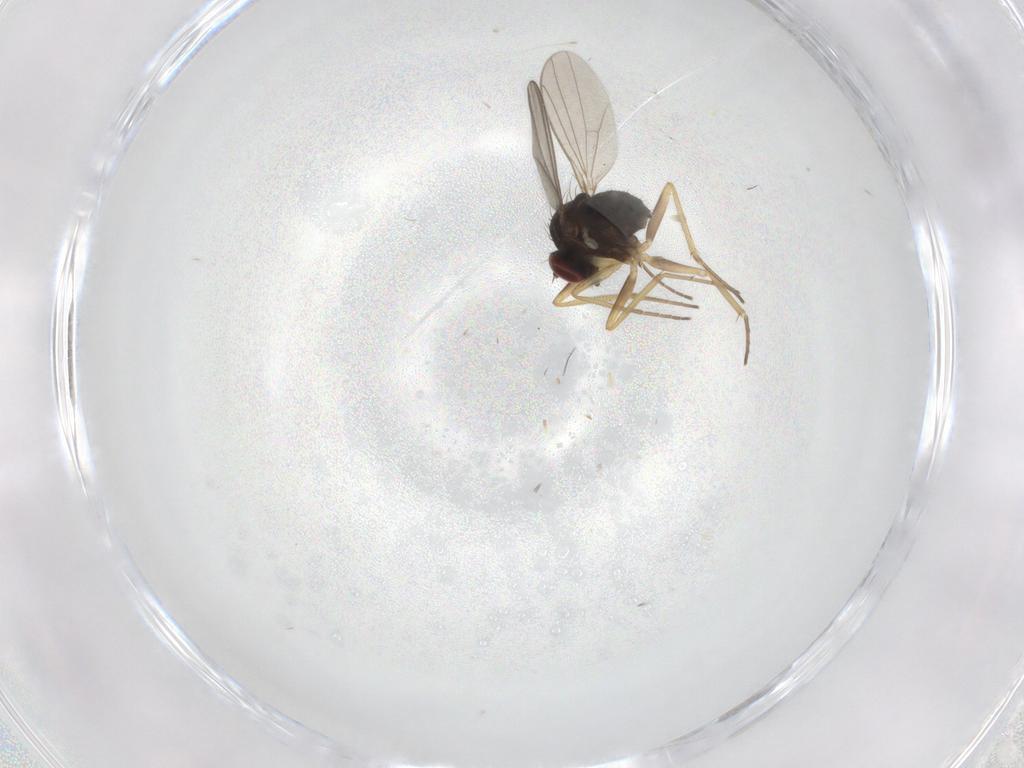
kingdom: Animalia
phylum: Arthropoda
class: Insecta
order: Diptera
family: Dolichopodidae
